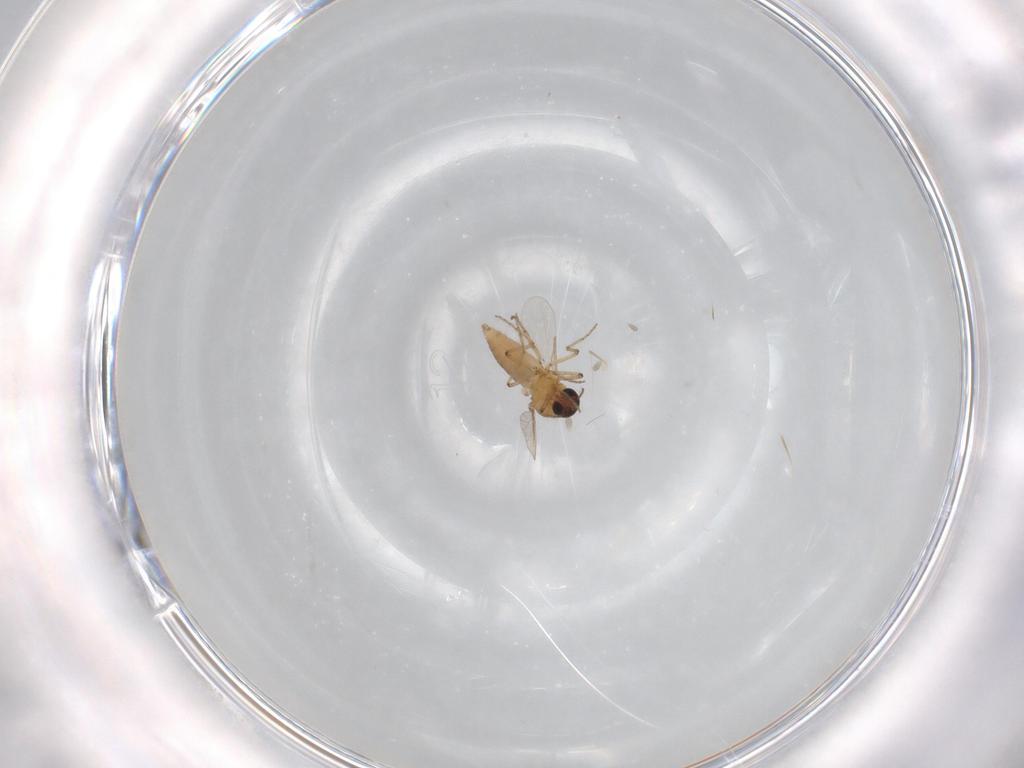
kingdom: Animalia
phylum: Arthropoda
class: Insecta
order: Diptera
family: Ceratopogonidae
